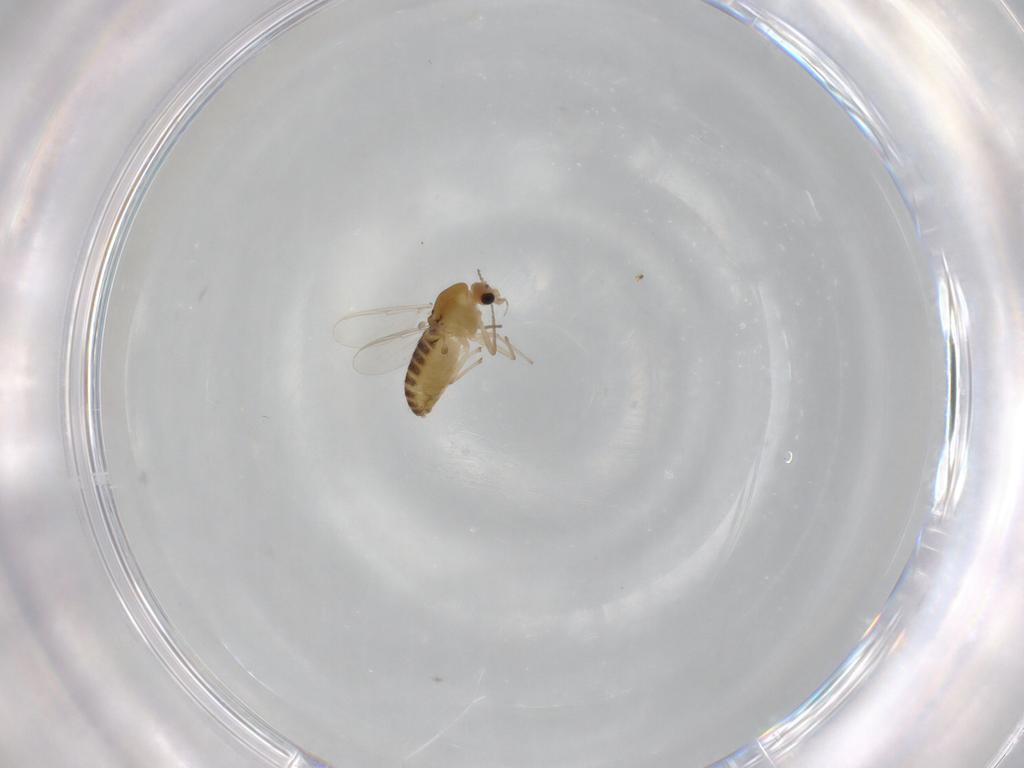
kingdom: Animalia
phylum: Arthropoda
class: Insecta
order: Diptera
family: Chironomidae
